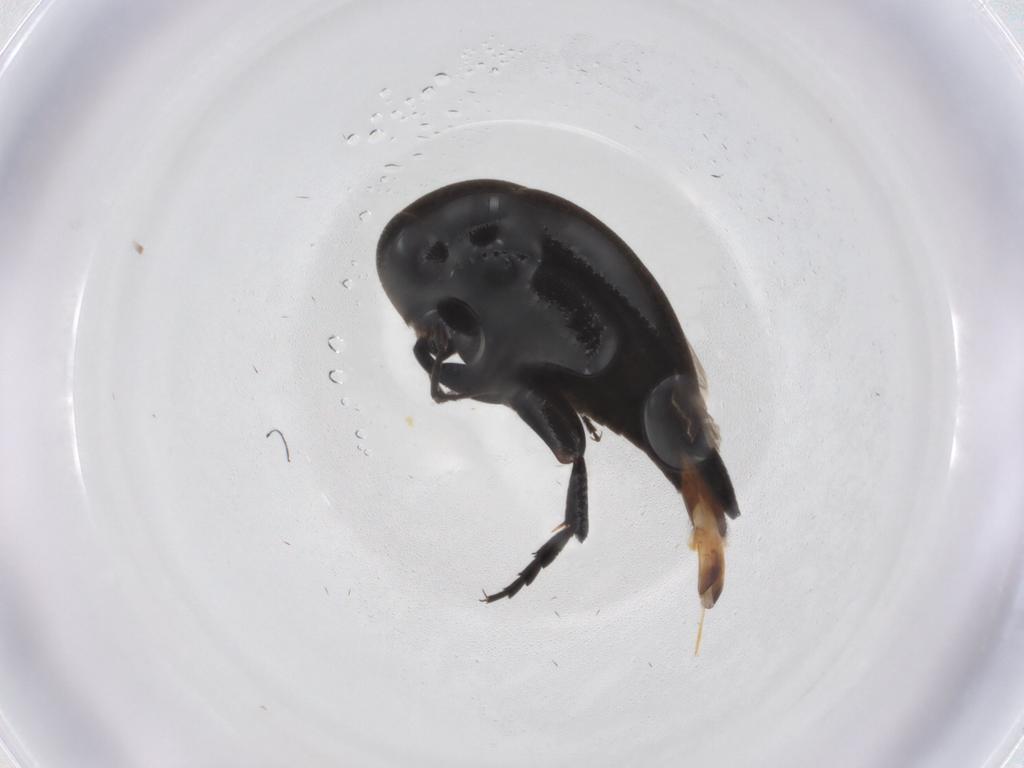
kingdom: Animalia
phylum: Arthropoda
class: Insecta
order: Coleoptera
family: Mordellidae
